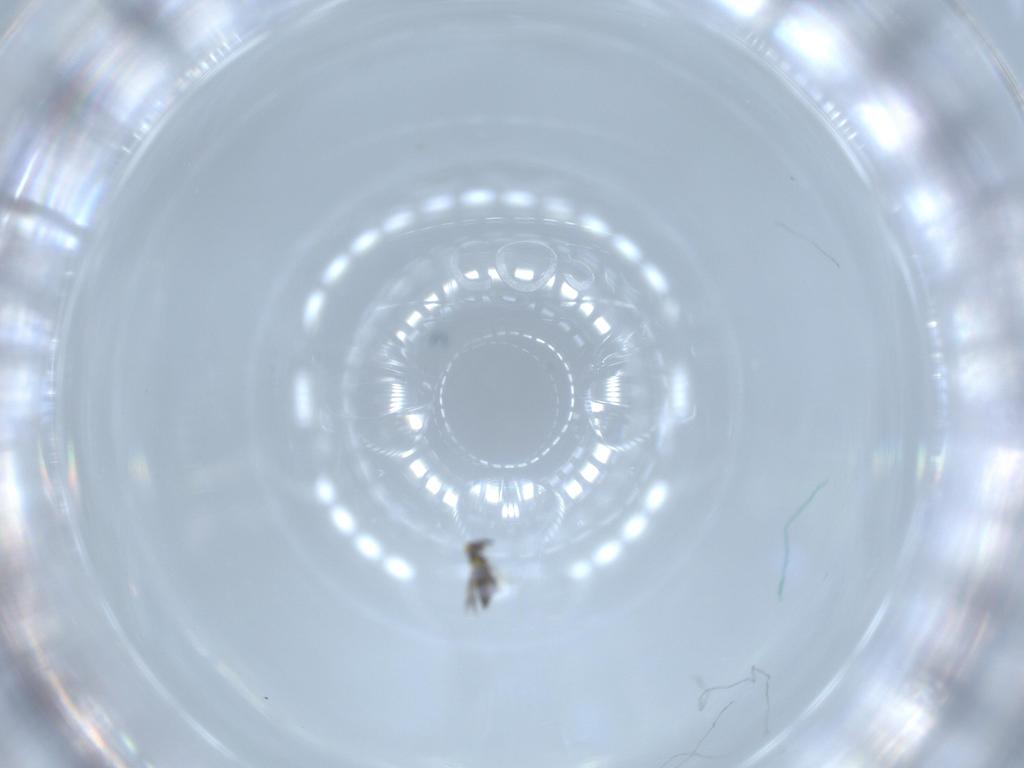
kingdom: Animalia
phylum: Arthropoda
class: Insecta
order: Hymenoptera
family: Signiphoridae
